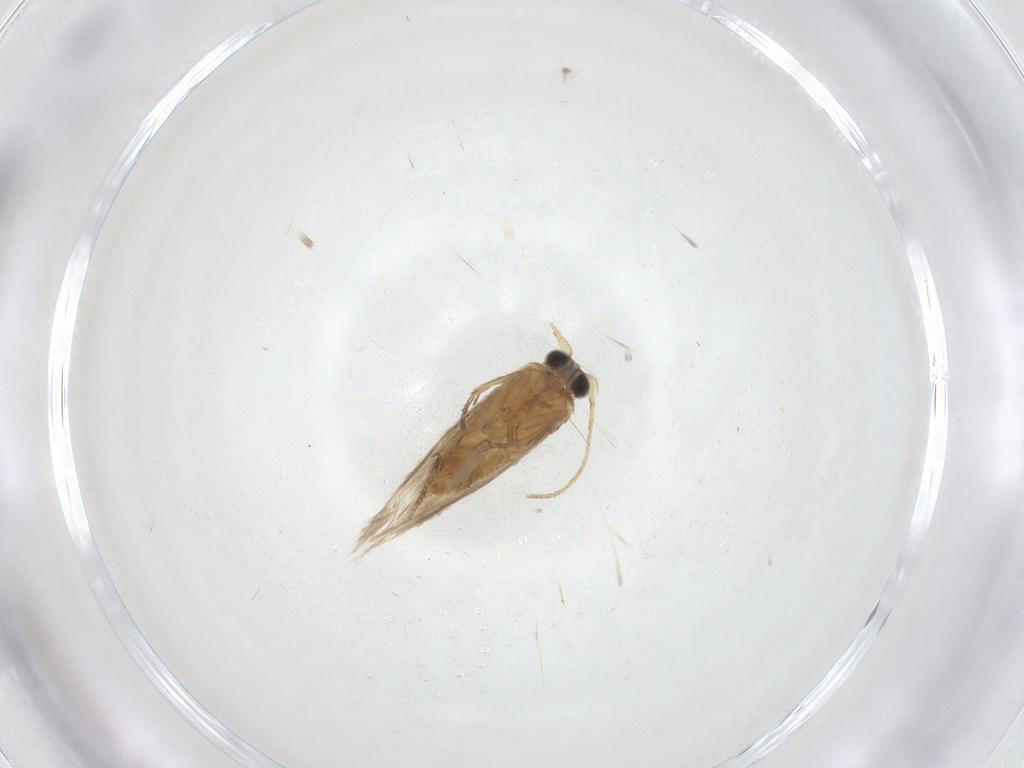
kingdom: Animalia
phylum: Arthropoda
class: Insecta
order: Lepidoptera
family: Nepticulidae
